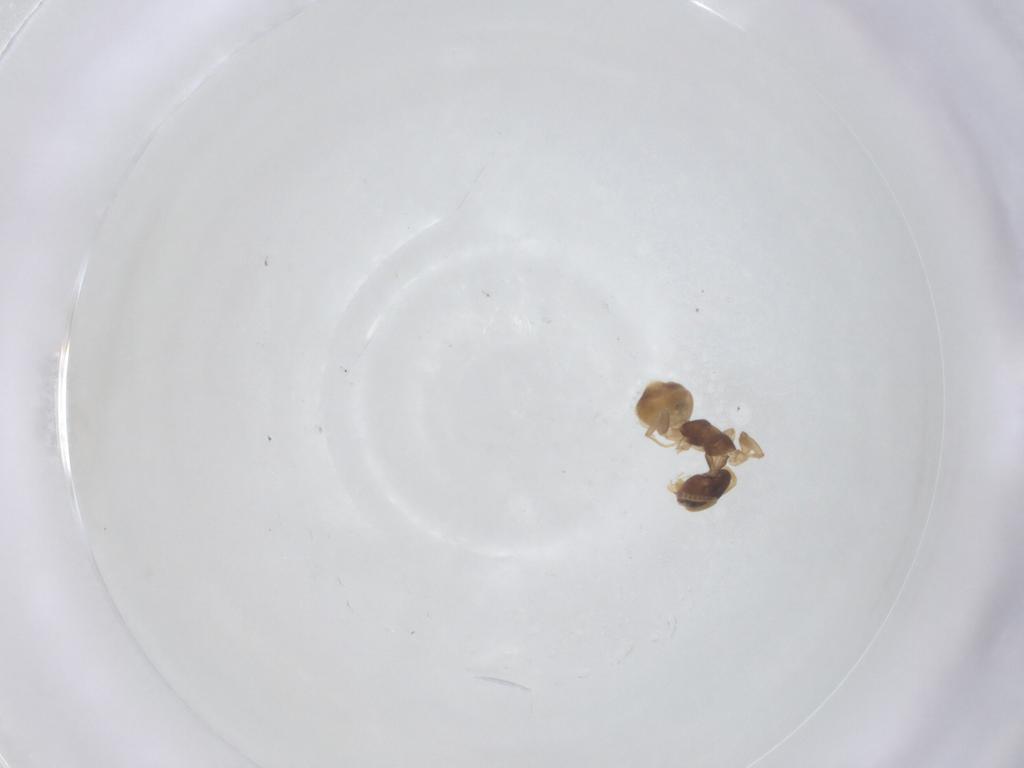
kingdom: Animalia
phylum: Arthropoda
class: Insecta
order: Hymenoptera
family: Formicidae
